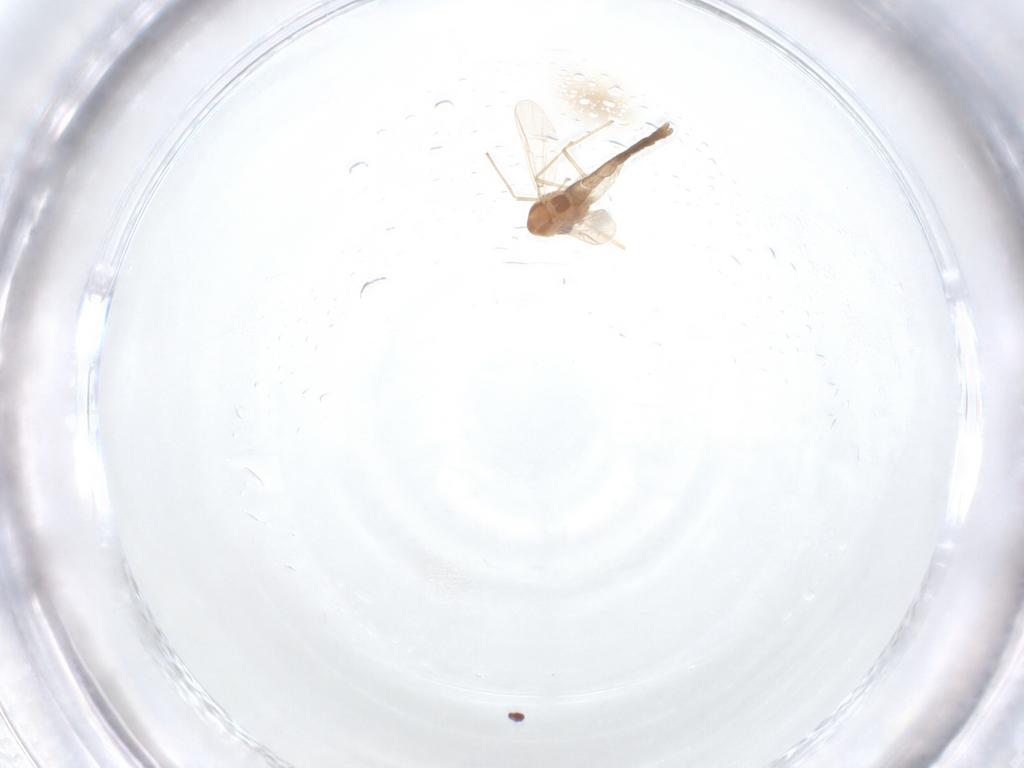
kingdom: Animalia
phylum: Arthropoda
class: Insecta
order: Diptera
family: Chironomidae
